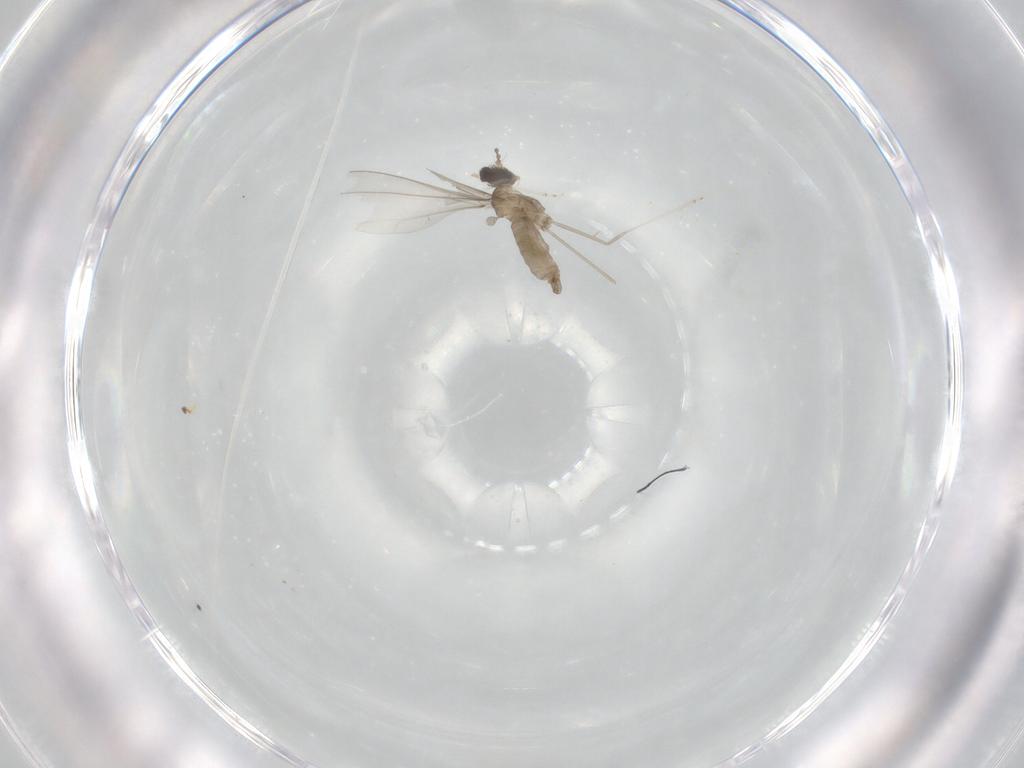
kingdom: Animalia
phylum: Arthropoda
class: Insecta
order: Diptera
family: Cecidomyiidae
